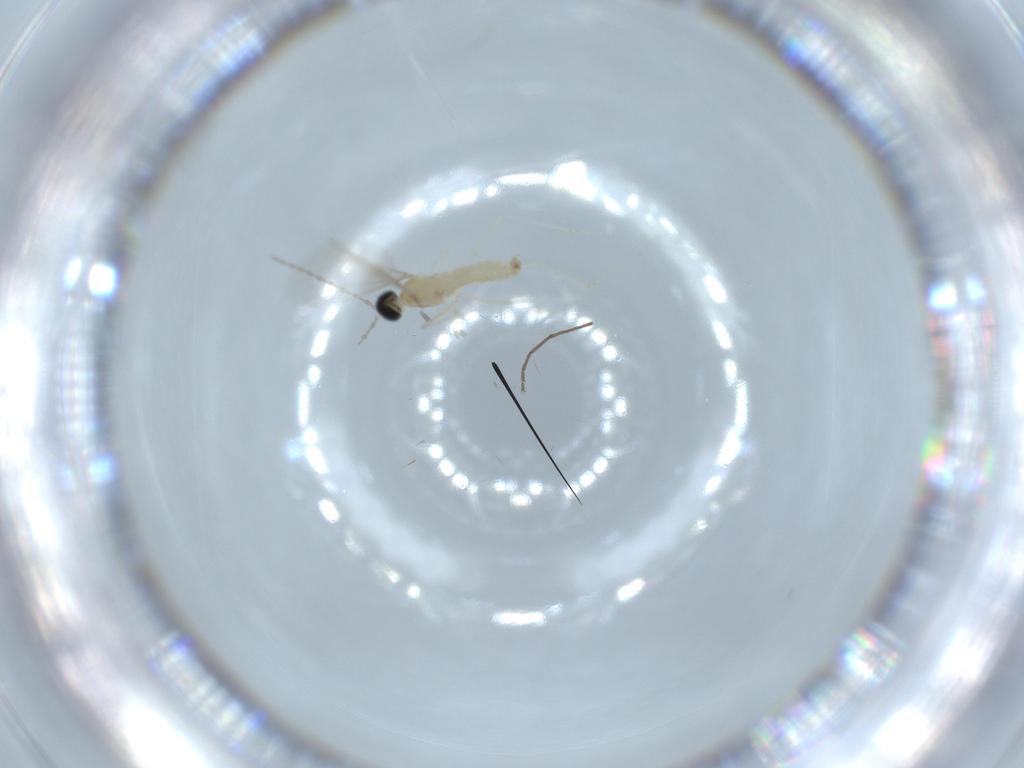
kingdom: Animalia
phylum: Arthropoda
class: Insecta
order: Diptera
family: Cecidomyiidae
